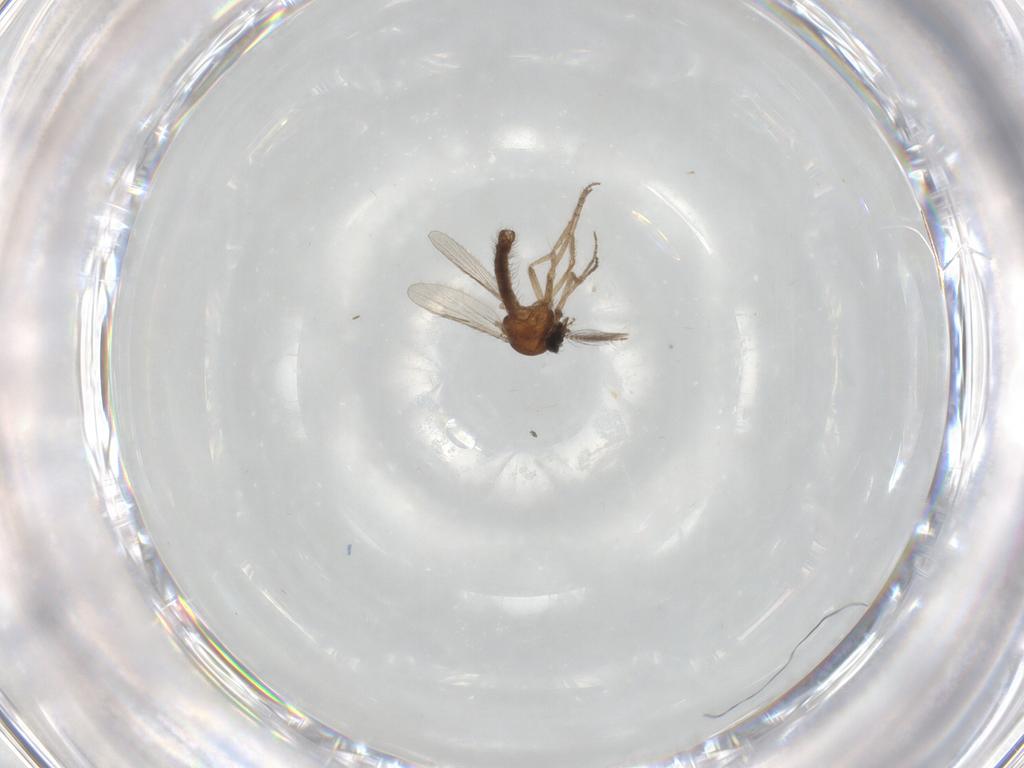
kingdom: Animalia
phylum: Arthropoda
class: Insecta
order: Diptera
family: Ceratopogonidae
